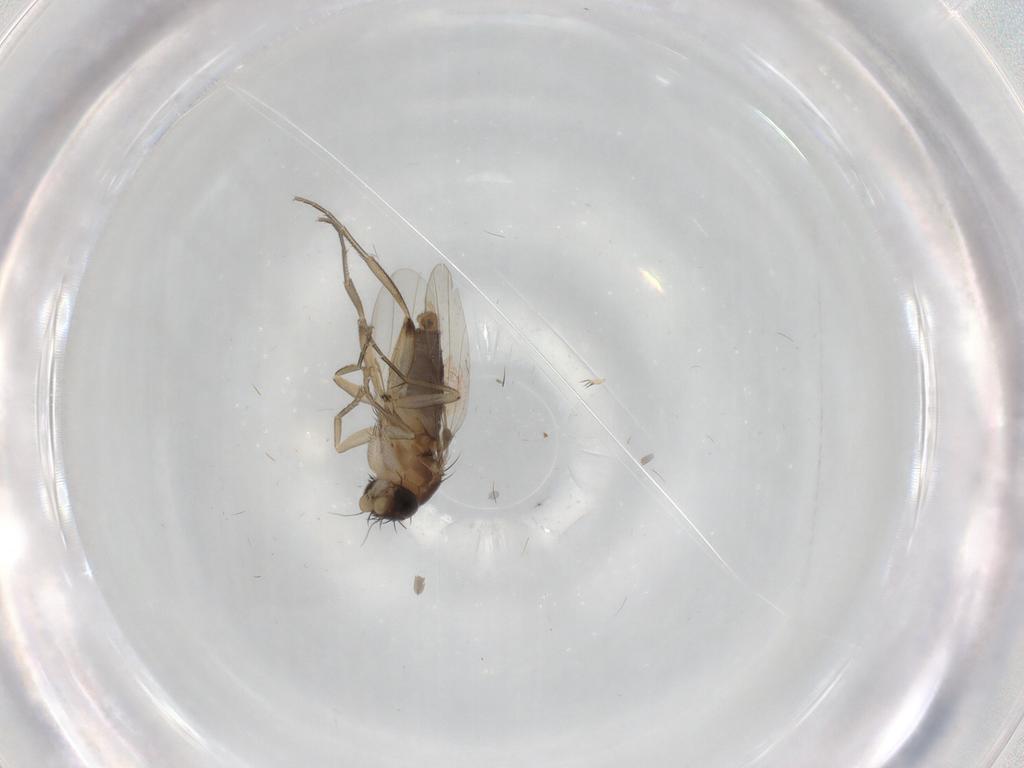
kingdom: Animalia
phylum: Arthropoda
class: Insecta
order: Diptera
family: Phoridae
